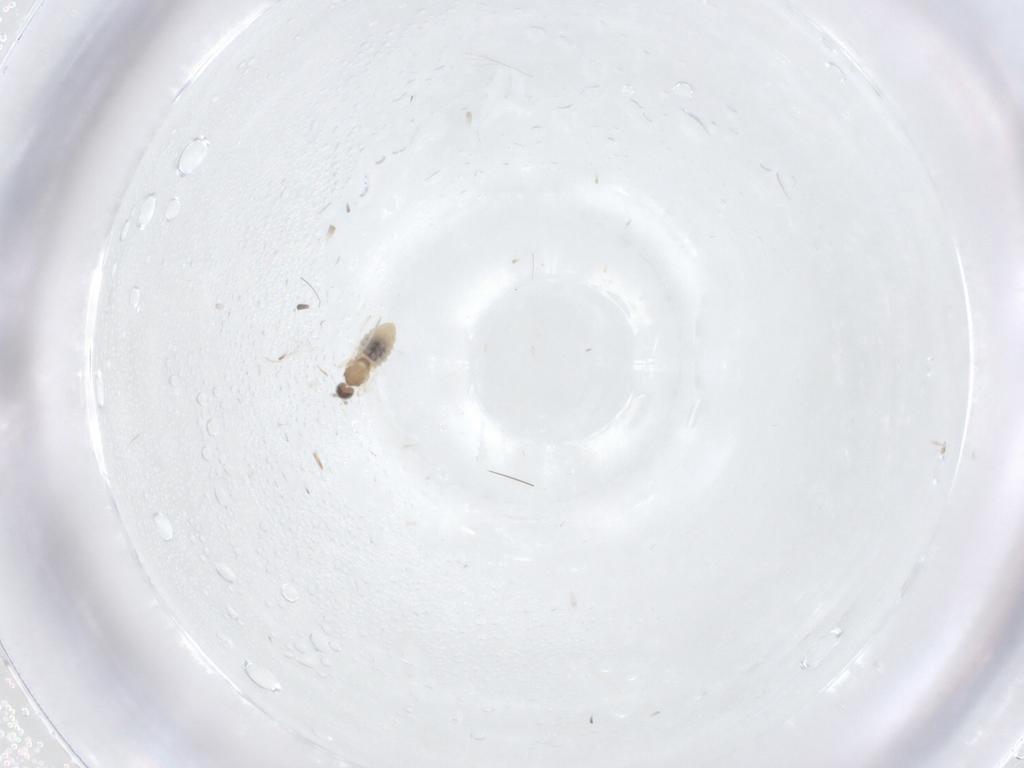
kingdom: Animalia
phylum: Arthropoda
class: Insecta
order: Diptera
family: Cecidomyiidae
